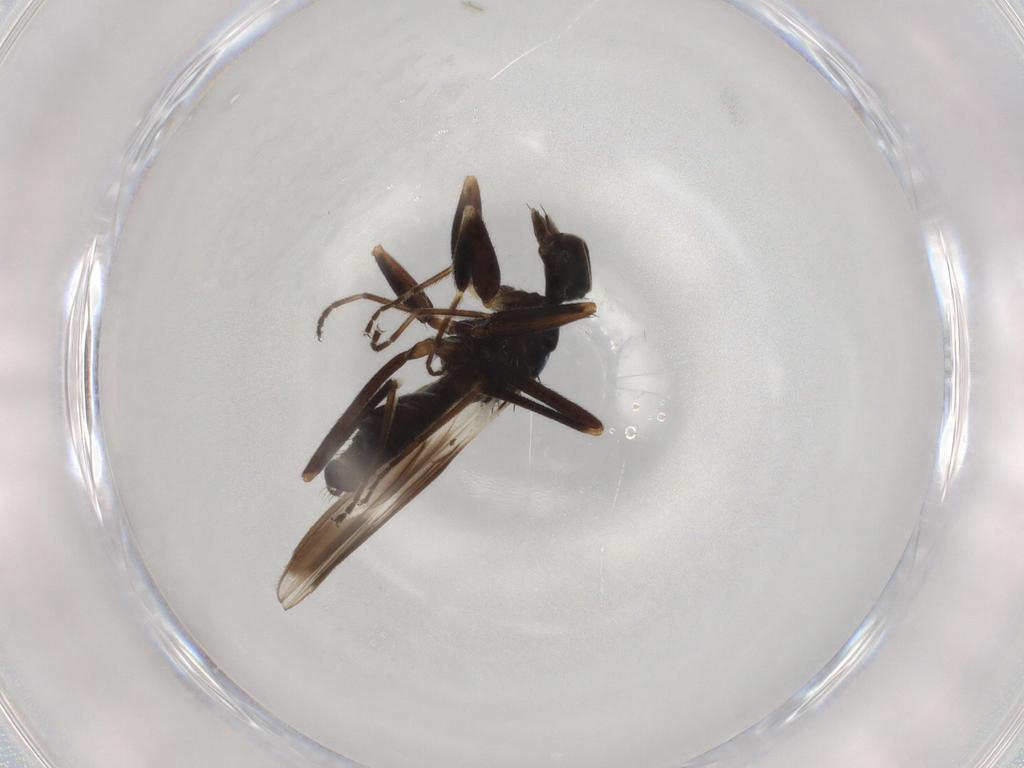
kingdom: Animalia
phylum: Arthropoda
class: Insecta
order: Diptera
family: Hybotidae
